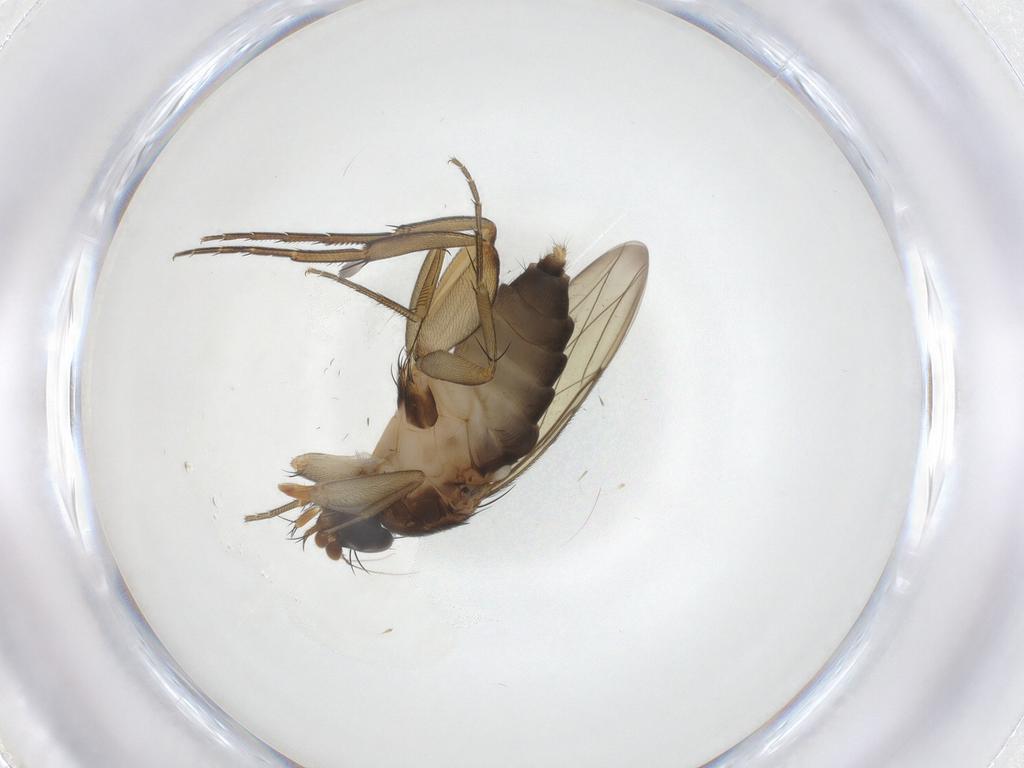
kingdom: Animalia
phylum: Arthropoda
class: Insecta
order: Diptera
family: Phoridae
